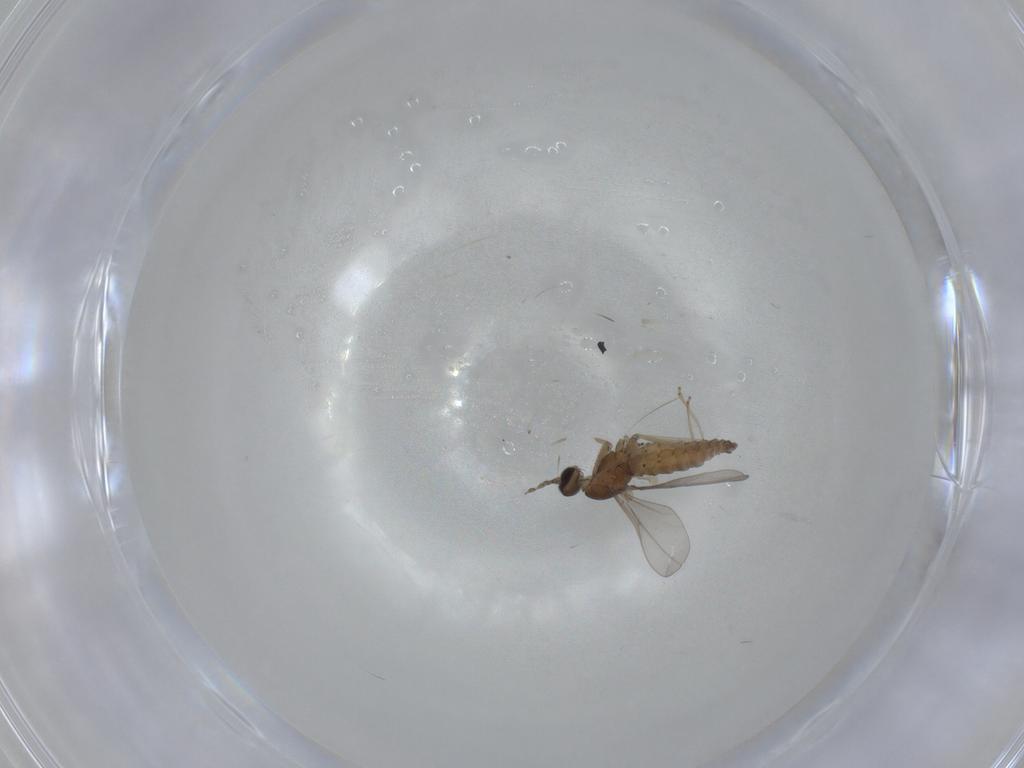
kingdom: Animalia
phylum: Arthropoda
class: Insecta
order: Diptera
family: Cecidomyiidae
